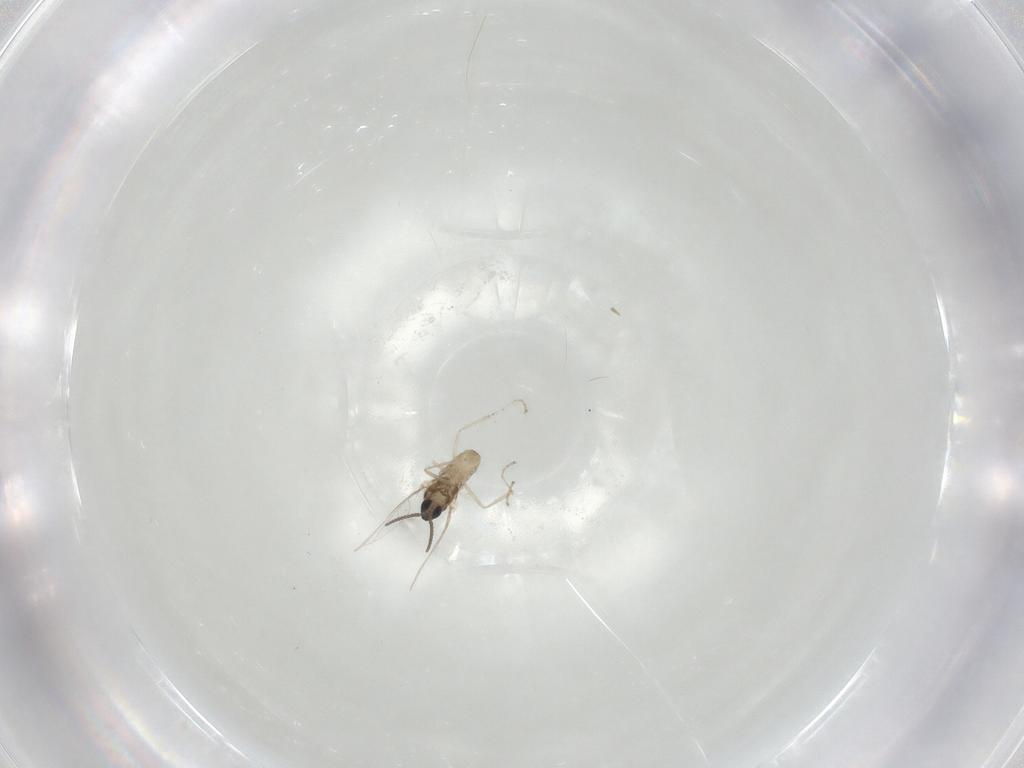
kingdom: Animalia
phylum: Arthropoda
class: Insecta
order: Diptera
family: Cecidomyiidae
